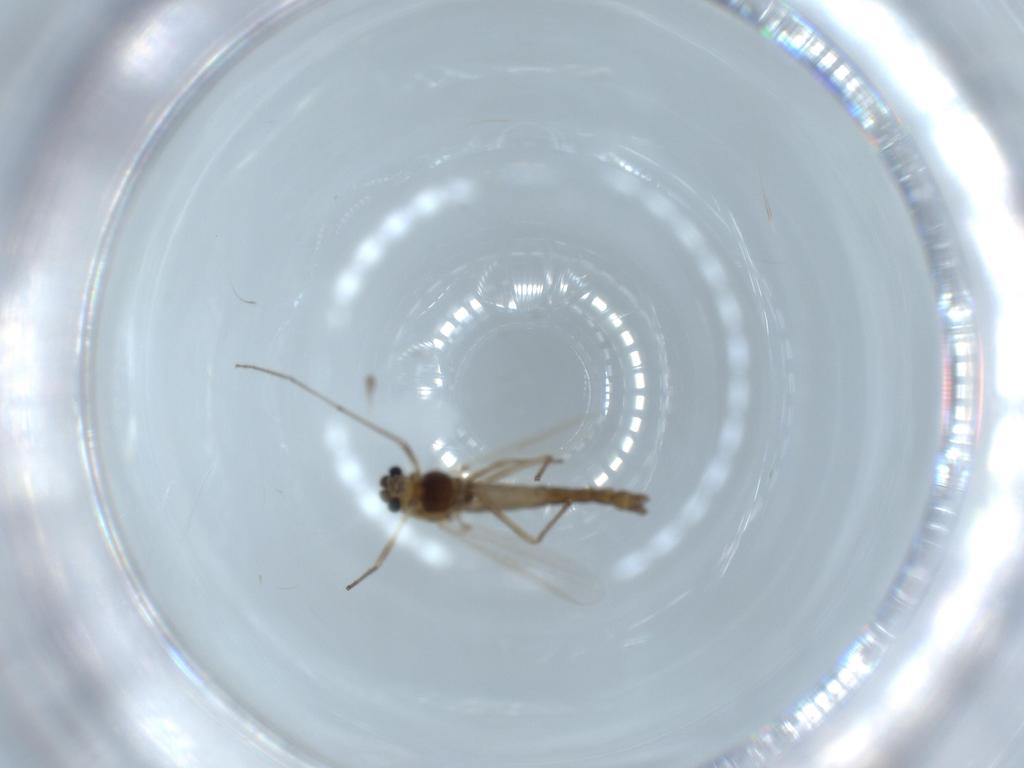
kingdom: Animalia
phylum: Arthropoda
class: Insecta
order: Diptera
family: Chironomidae
